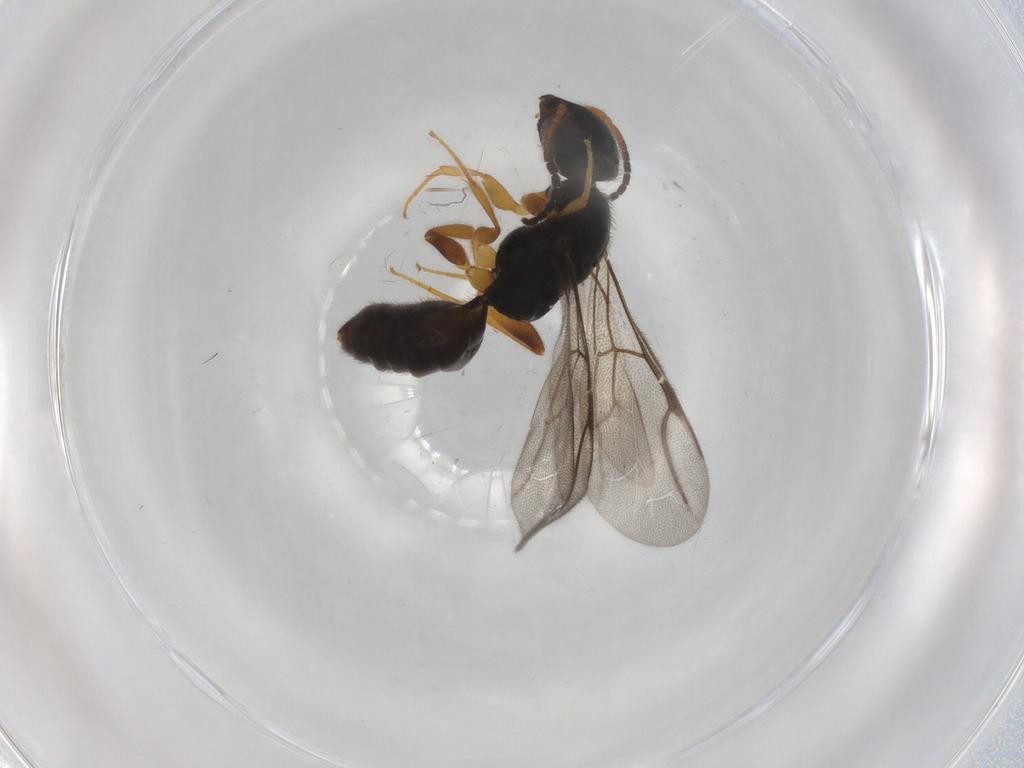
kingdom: Animalia
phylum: Arthropoda
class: Insecta
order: Hymenoptera
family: Bethylidae
